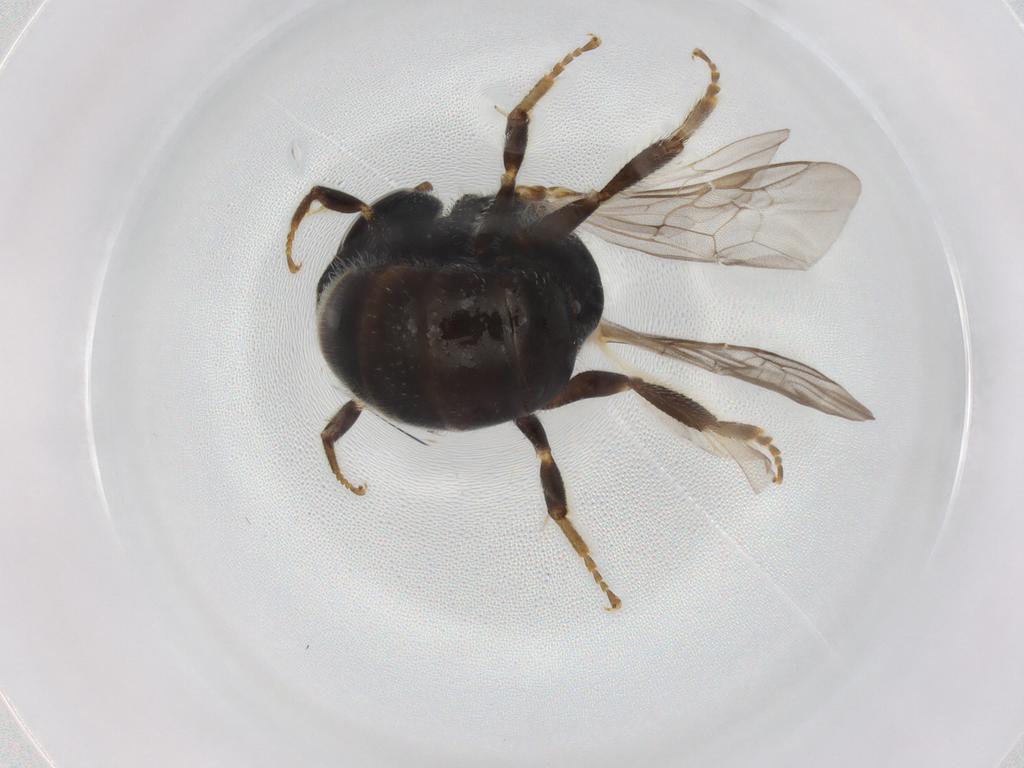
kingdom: Animalia
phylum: Arthropoda
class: Insecta
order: Hymenoptera
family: Halictidae
